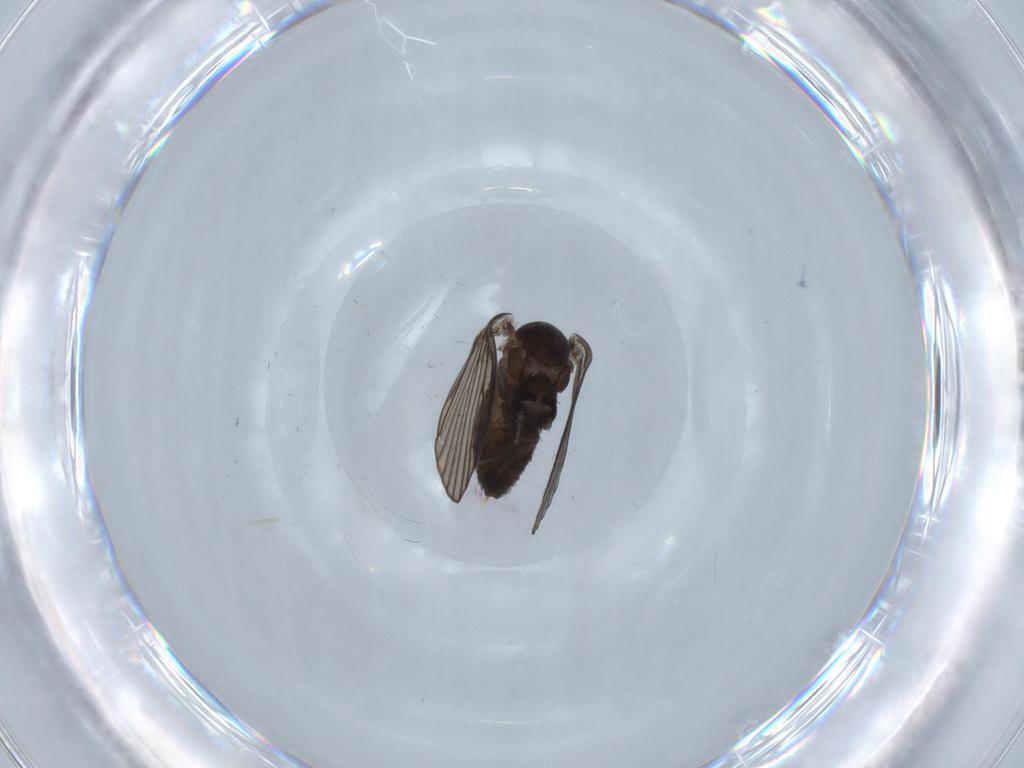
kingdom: Animalia
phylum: Arthropoda
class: Insecta
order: Diptera
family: Psychodidae
